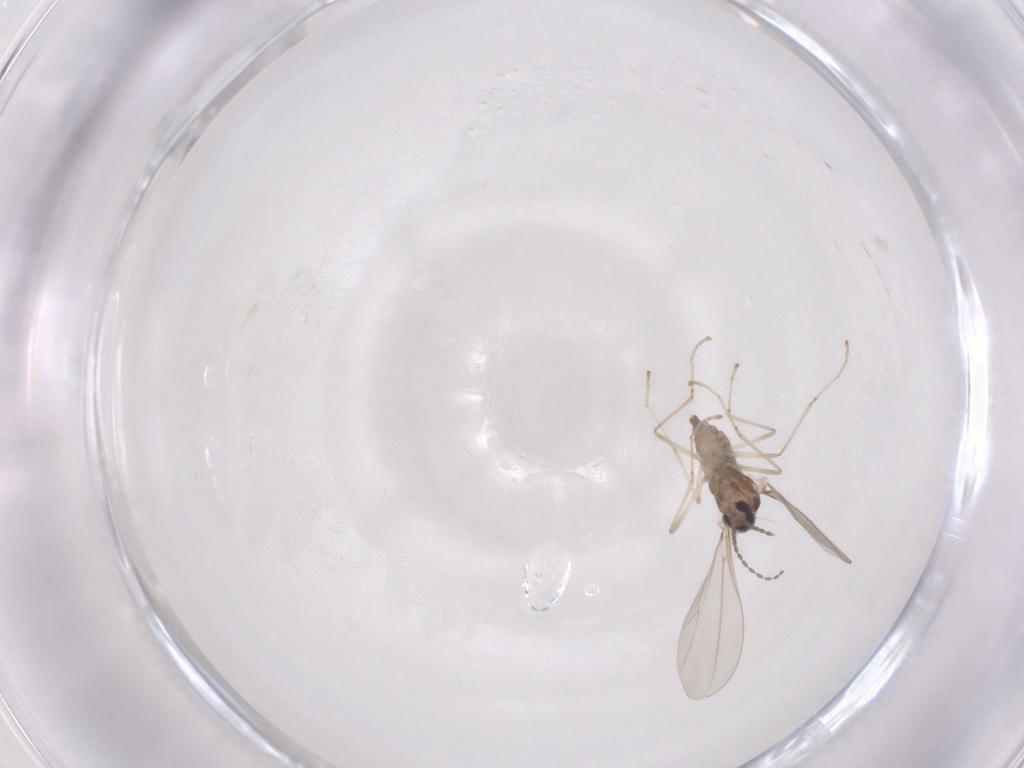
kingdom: Animalia
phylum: Arthropoda
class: Insecta
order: Diptera
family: Cecidomyiidae
